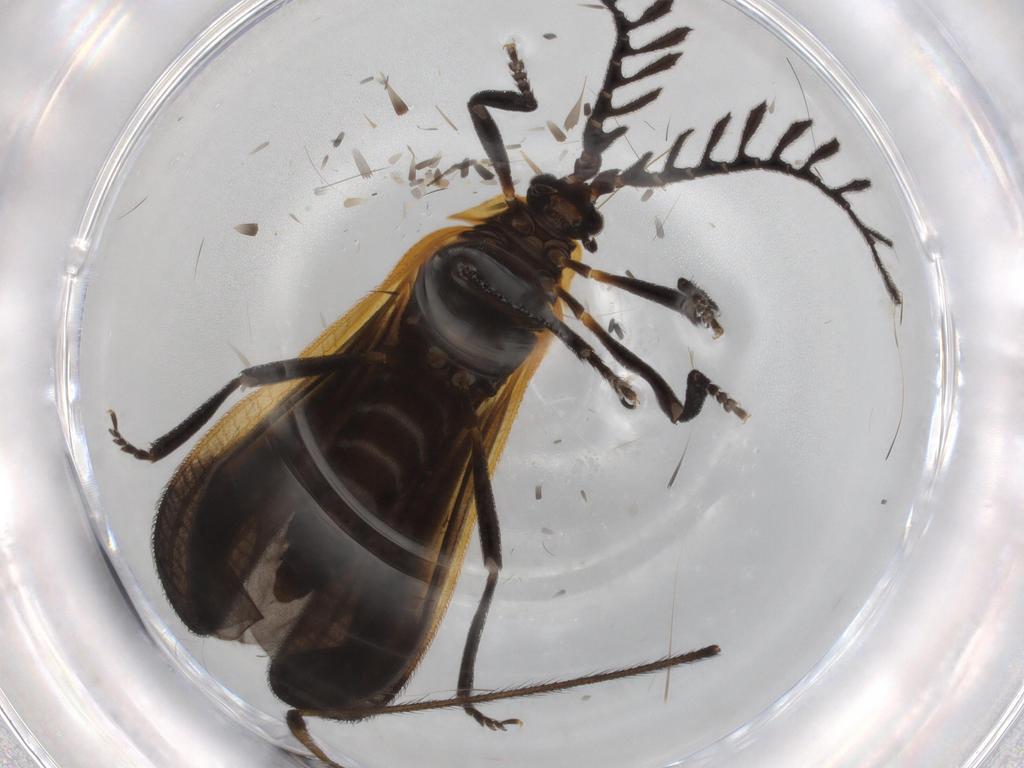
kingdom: Animalia
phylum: Arthropoda
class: Insecta
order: Coleoptera
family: Lycidae
